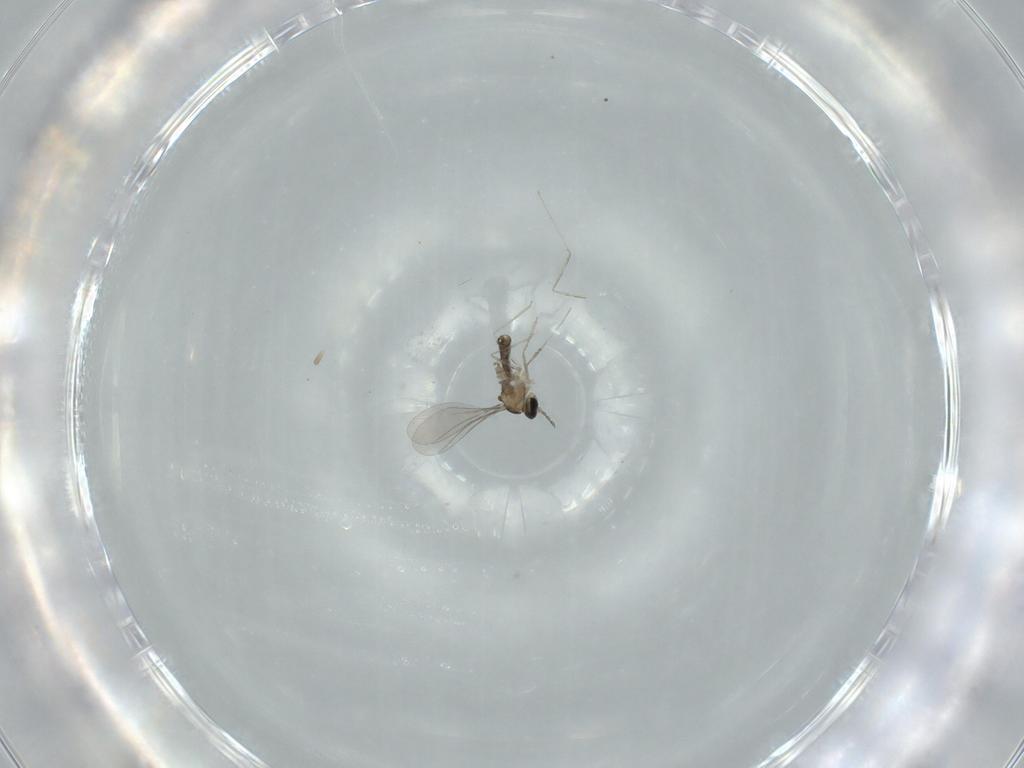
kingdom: Animalia
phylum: Arthropoda
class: Insecta
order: Diptera
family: Cecidomyiidae
